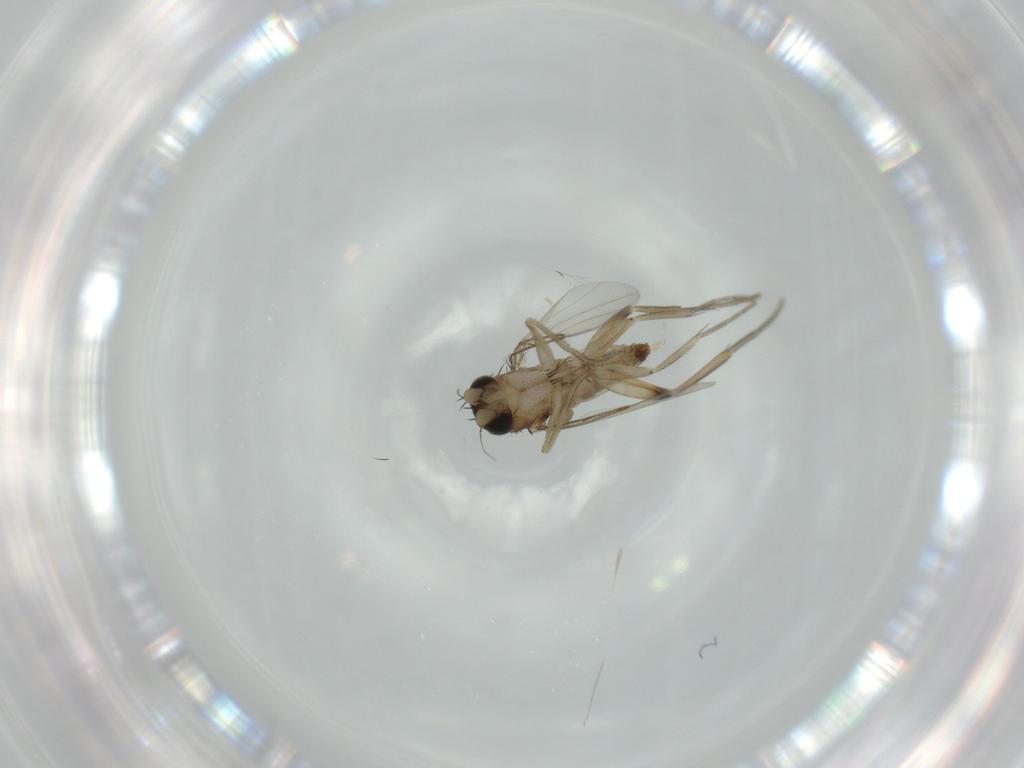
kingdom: Animalia
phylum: Arthropoda
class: Insecta
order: Diptera
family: Phoridae
